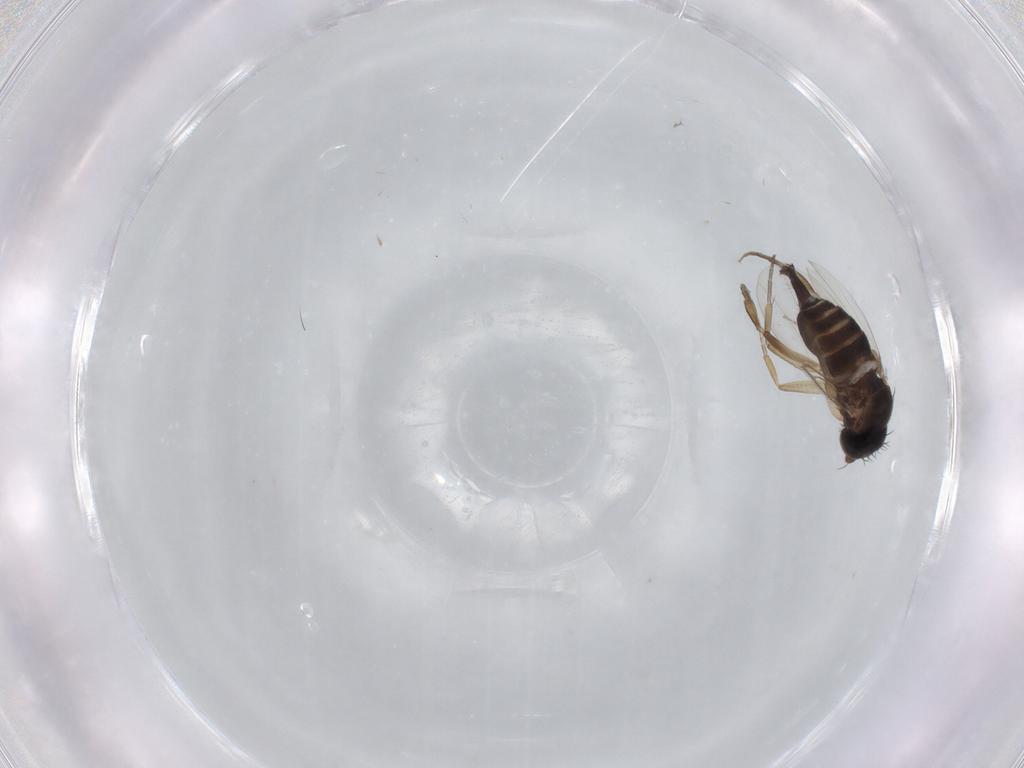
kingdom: Animalia
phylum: Arthropoda
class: Insecta
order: Diptera
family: Phoridae
